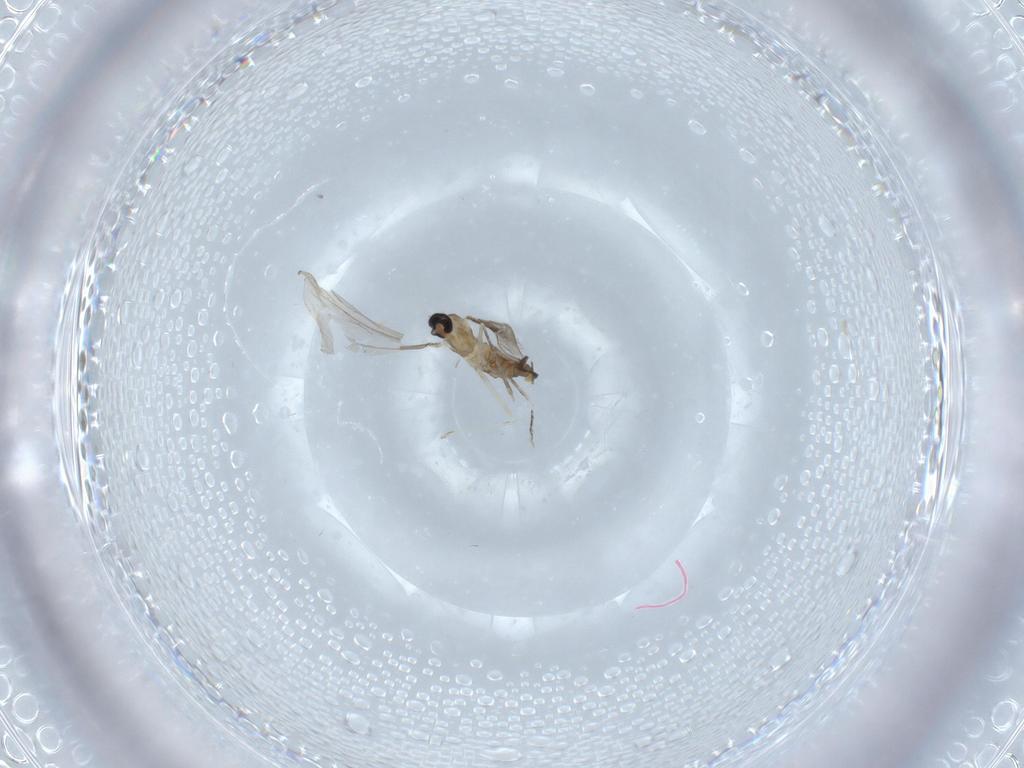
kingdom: Animalia
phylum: Arthropoda
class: Insecta
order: Diptera
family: Cecidomyiidae
